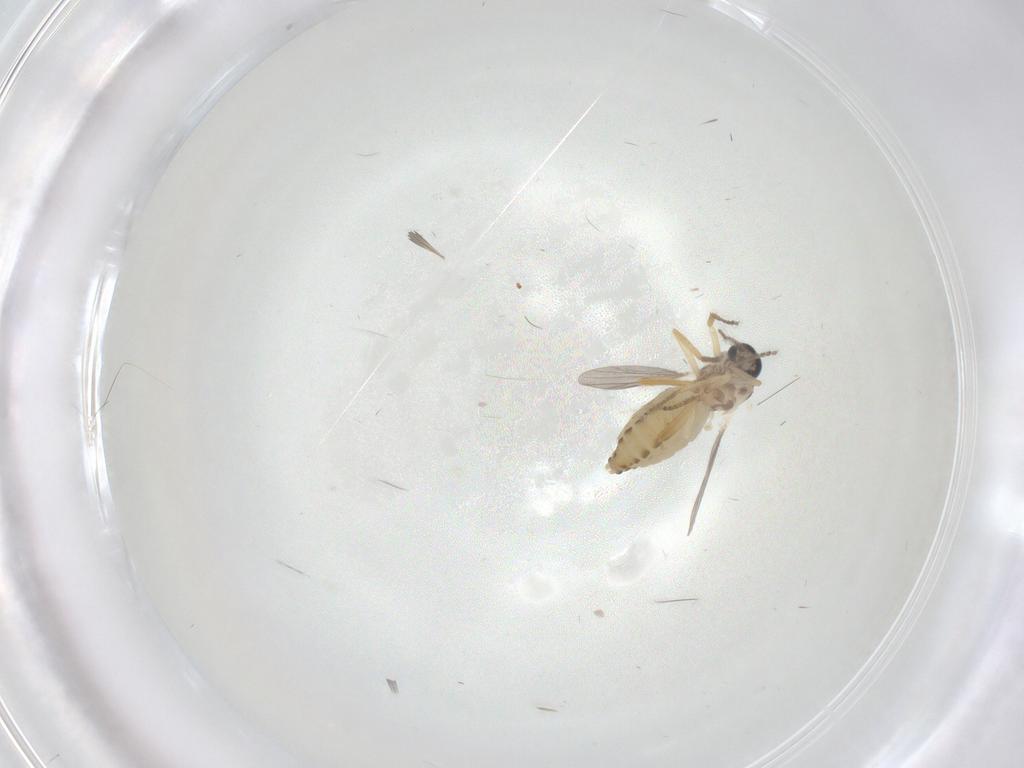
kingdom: Animalia
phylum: Arthropoda
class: Insecta
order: Diptera
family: Ceratopogonidae
